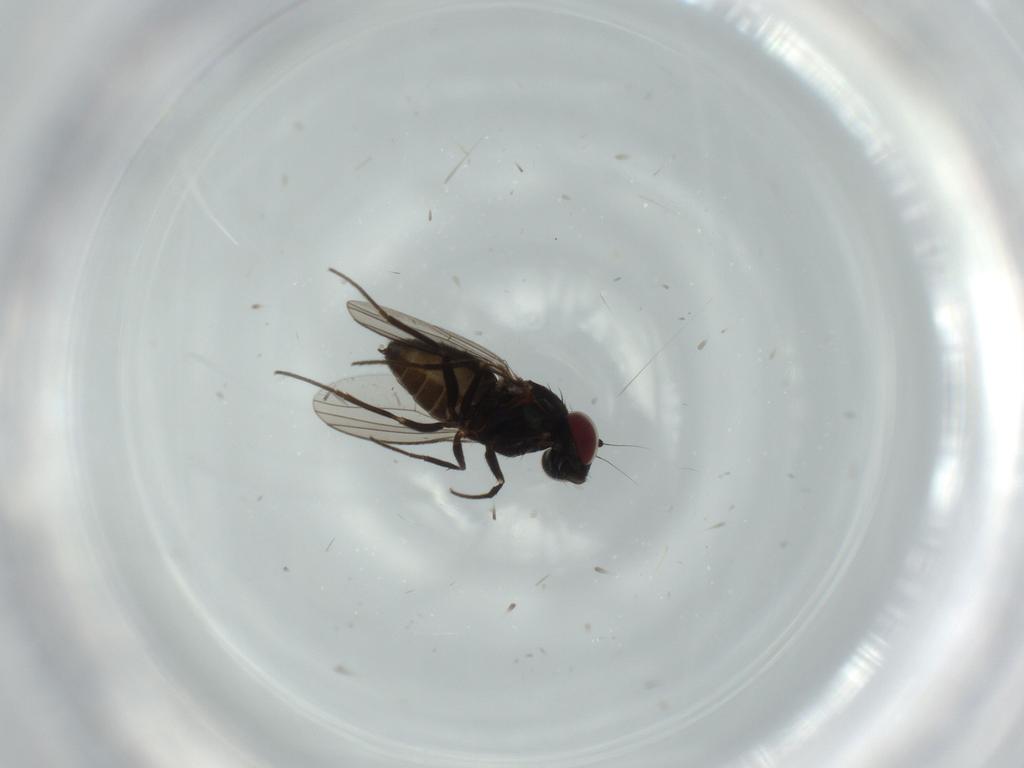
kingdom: Animalia
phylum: Arthropoda
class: Insecta
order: Diptera
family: Dolichopodidae
